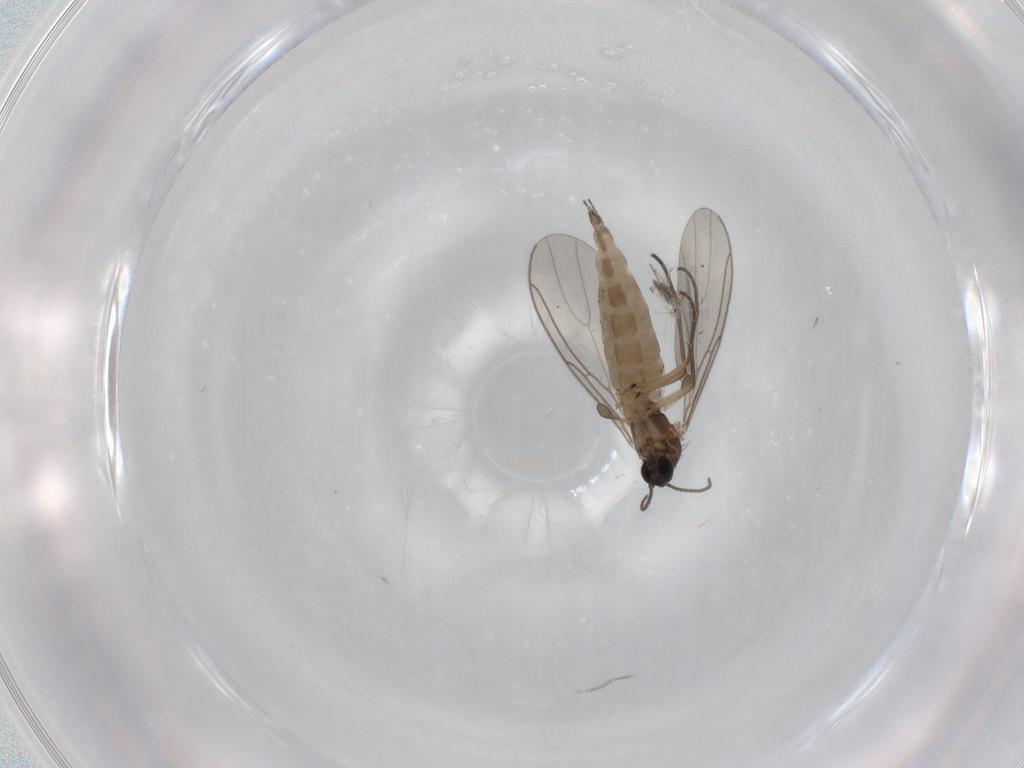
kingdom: Animalia
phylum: Arthropoda
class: Insecta
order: Diptera
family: Sciaridae
